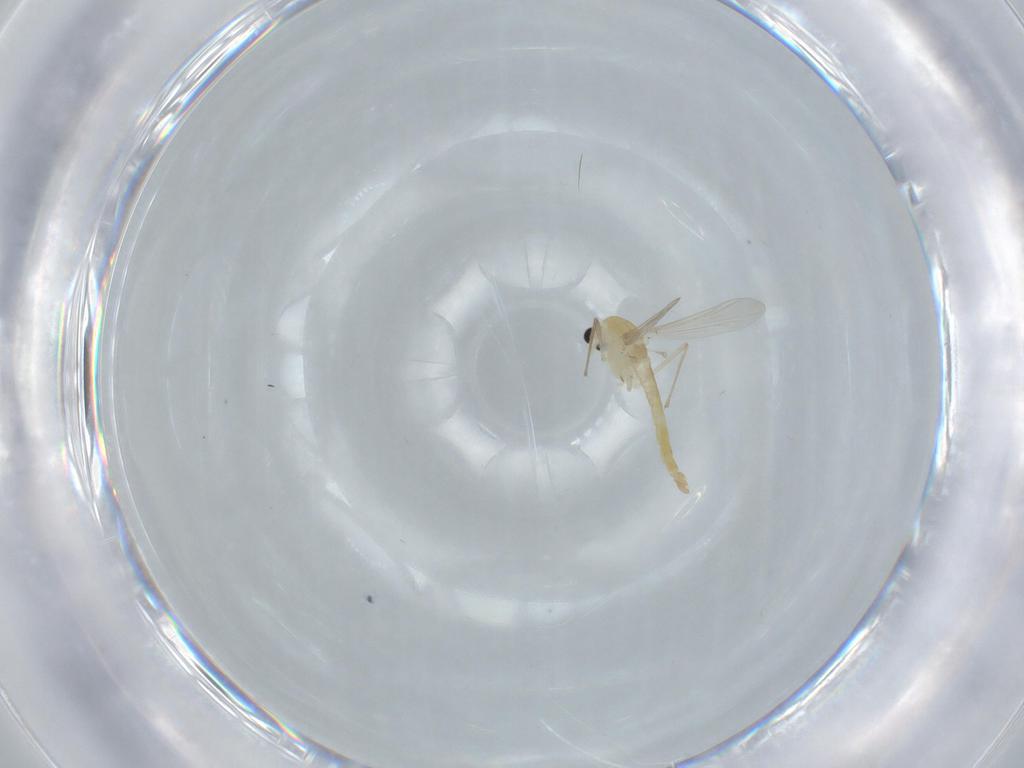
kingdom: Animalia
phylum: Arthropoda
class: Insecta
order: Diptera
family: Chironomidae
